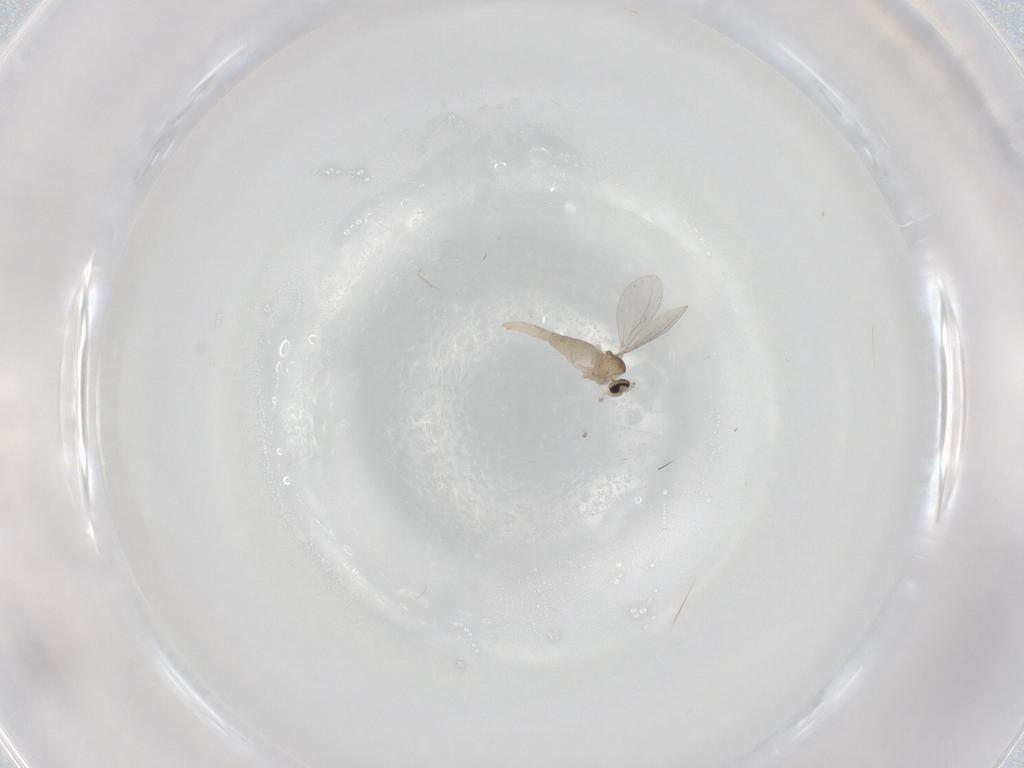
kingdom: Animalia
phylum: Arthropoda
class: Insecta
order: Diptera
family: Cecidomyiidae
